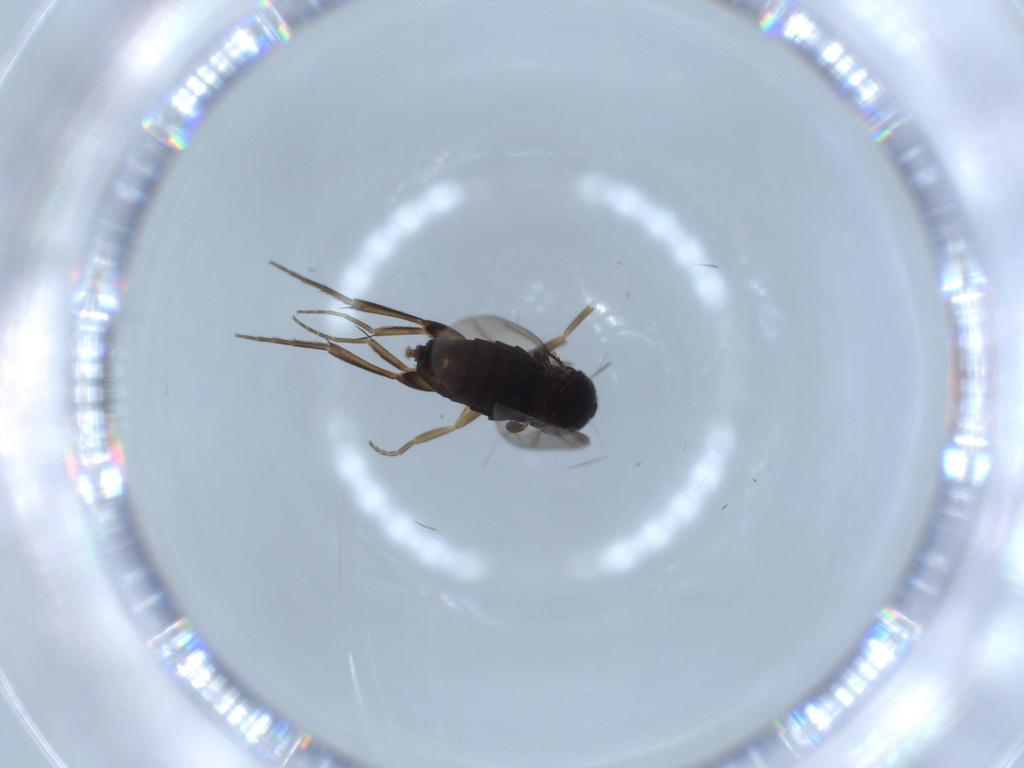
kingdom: Animalia
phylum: Arthropoda
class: Insecta
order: Diptera
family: Phoridae
